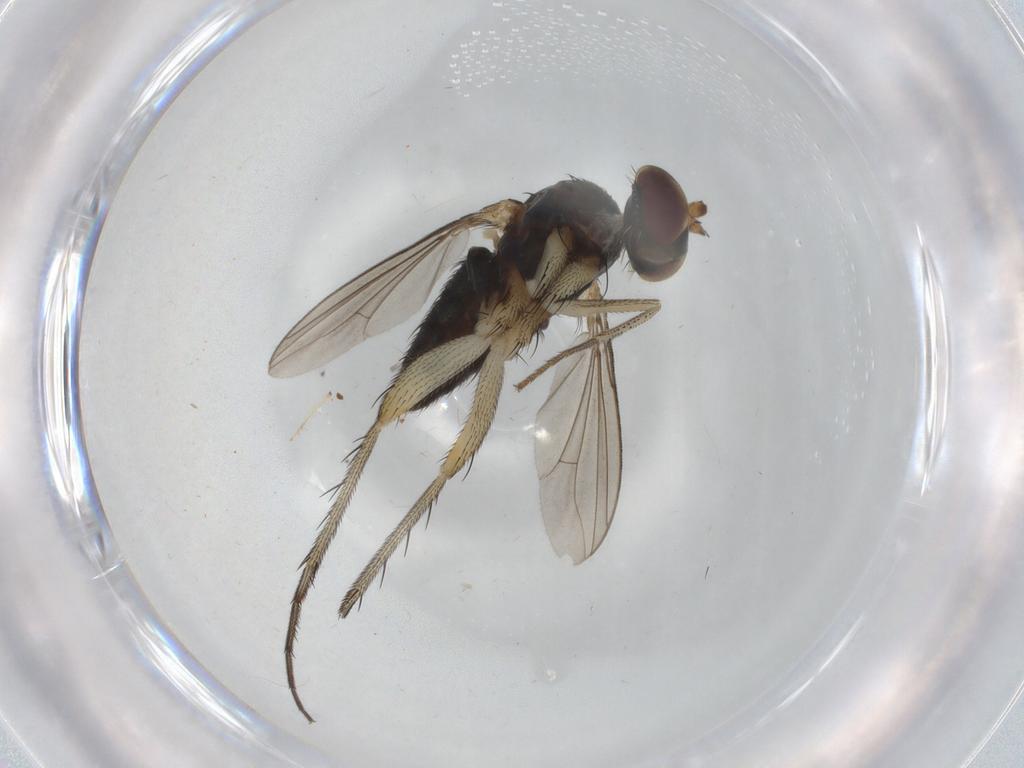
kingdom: Animalia
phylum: Arthropoda
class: Insecta
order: Diptera
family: Dolichopodidae
